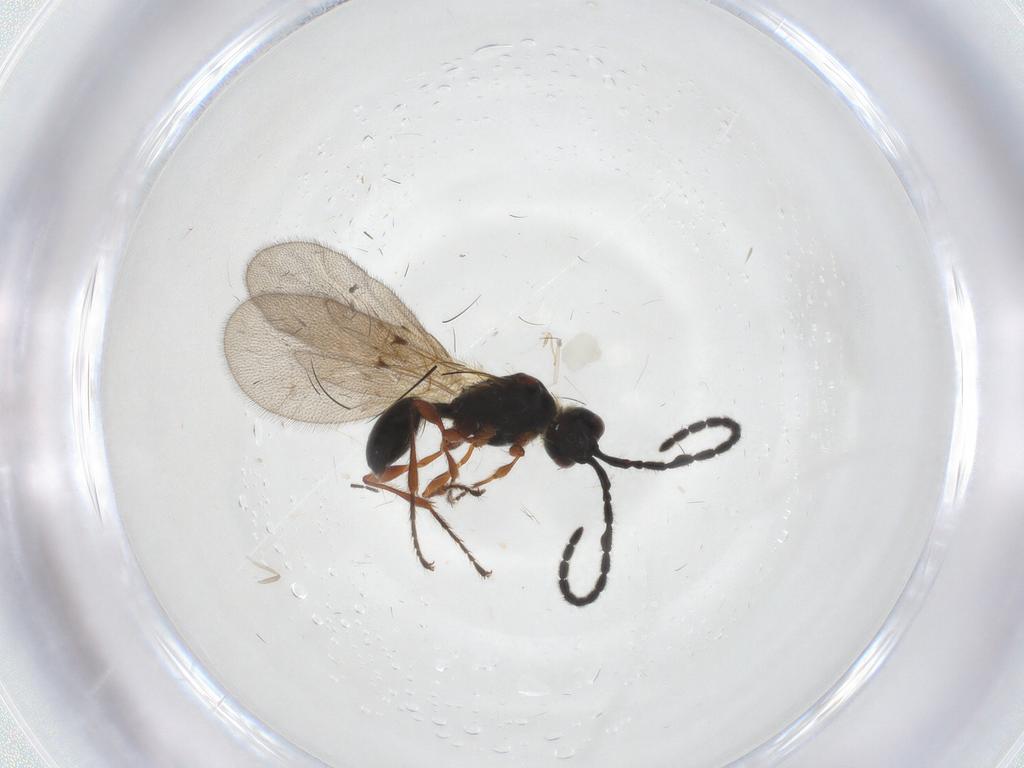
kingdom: Animalia
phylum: Arthropoda
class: Insecta
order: Hymenoptera
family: Diapriidae
